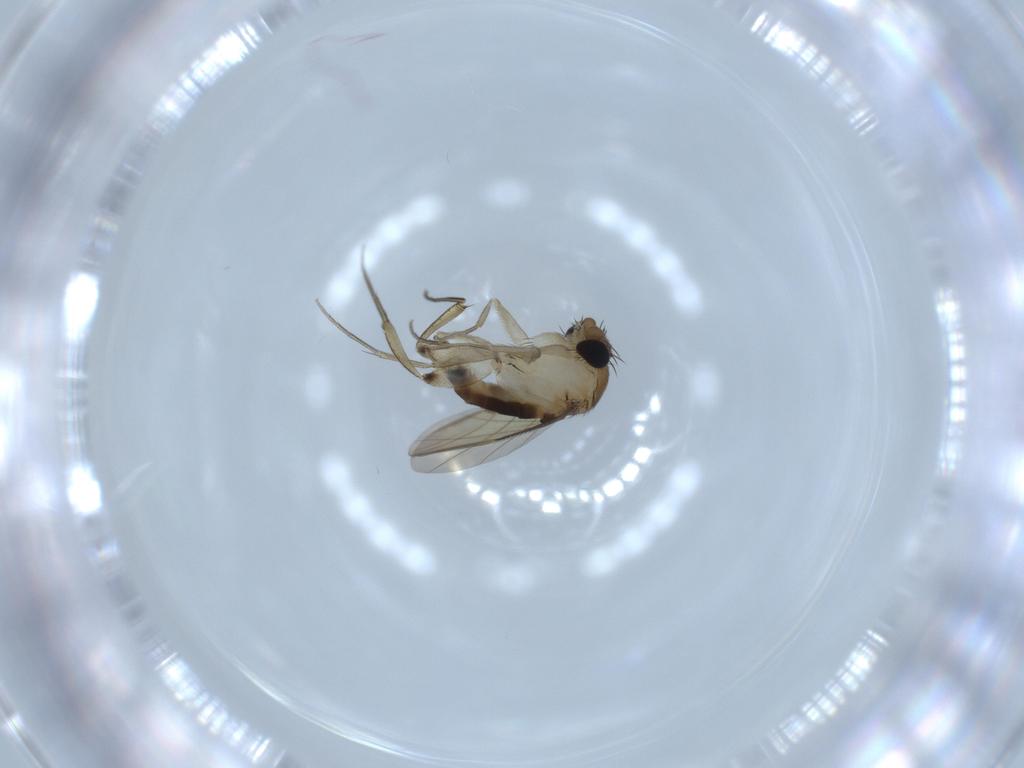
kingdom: Animalia
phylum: Arthropoda
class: Insecta
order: Diptera
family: Phoridae
